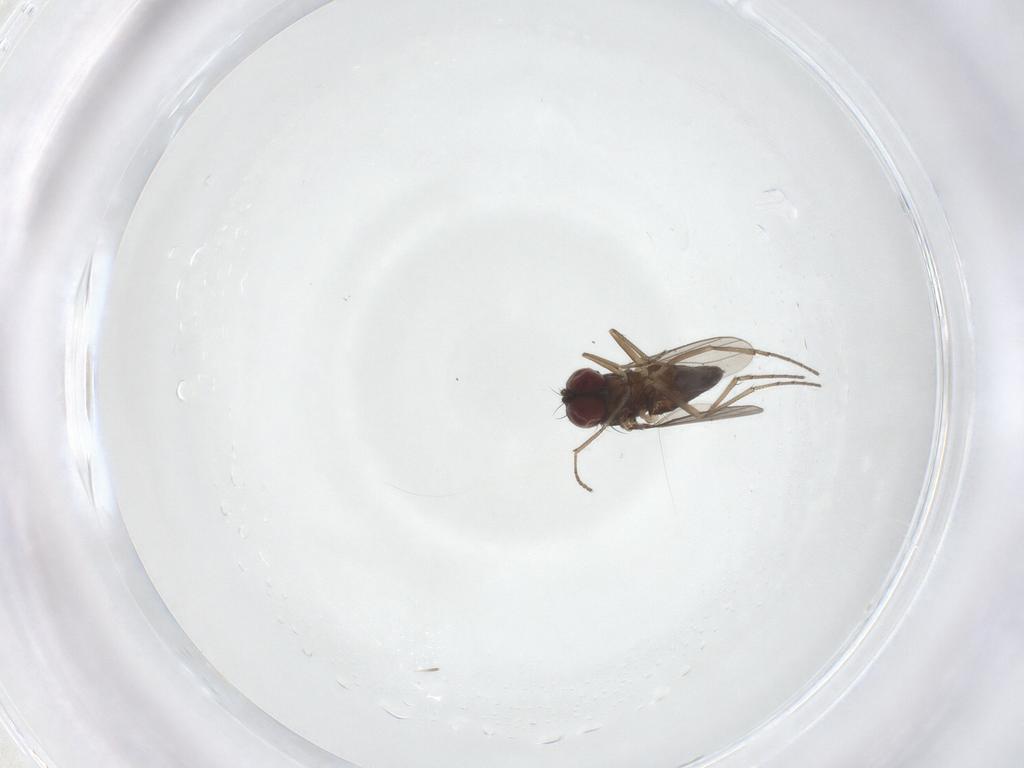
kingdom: Animalia
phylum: Arthropoda
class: Insecta
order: Diptera
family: Dolichopodidae
